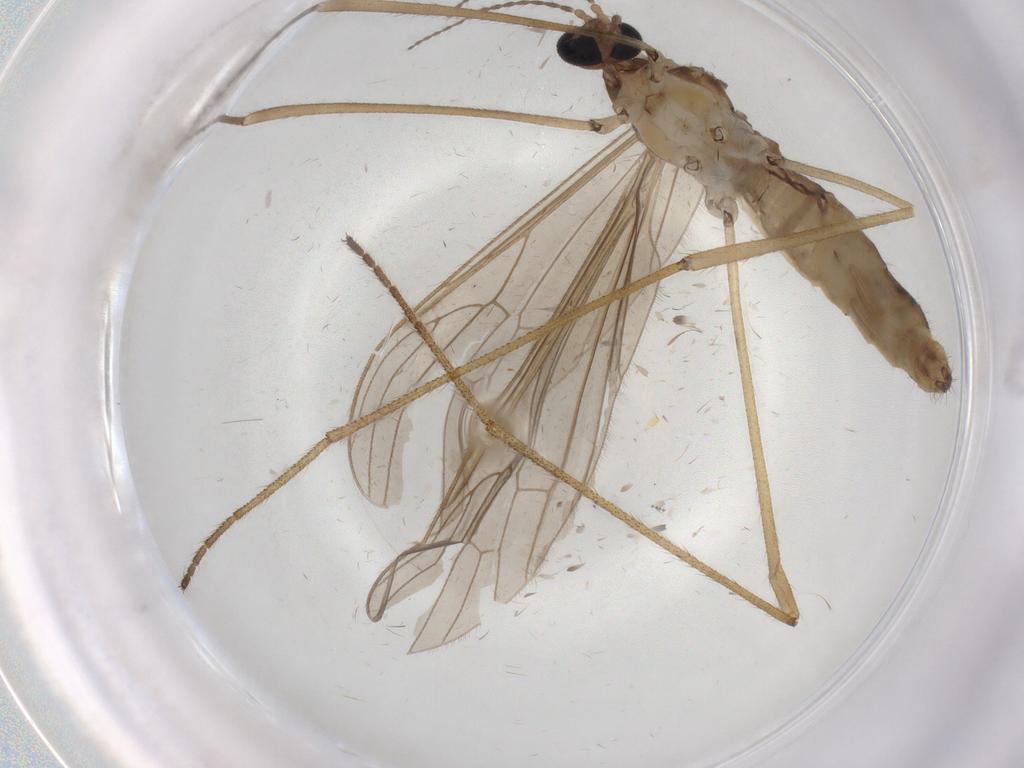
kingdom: Animalia
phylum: Arthropoda
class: Insecta
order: Diptera
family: Limoniidae
